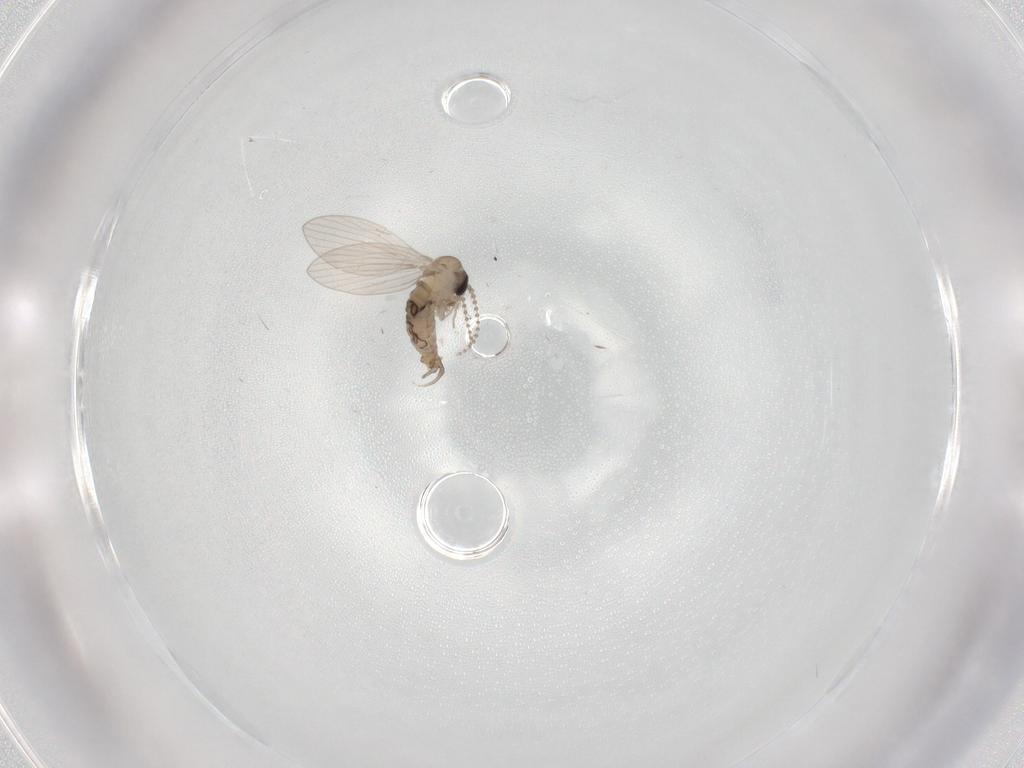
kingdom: Animalia
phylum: Arthropoda
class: Insecta
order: Diptera
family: Psychodidae
